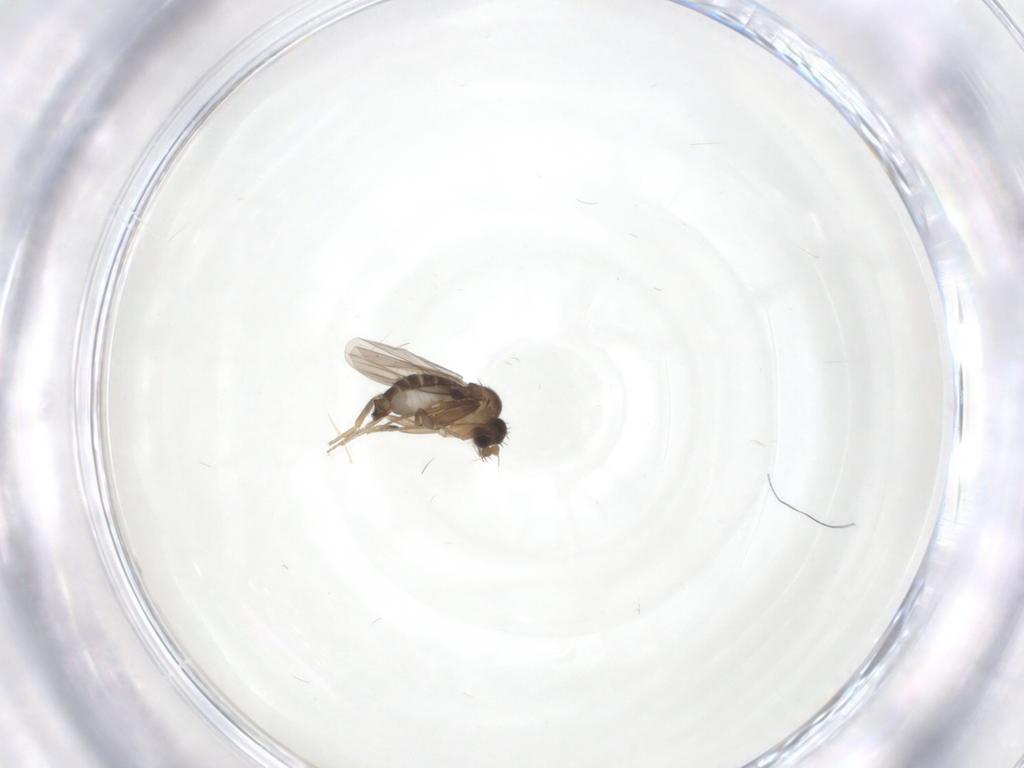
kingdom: Animalia
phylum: Arthropoda
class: Insecta
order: Diptera
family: Phoridae
